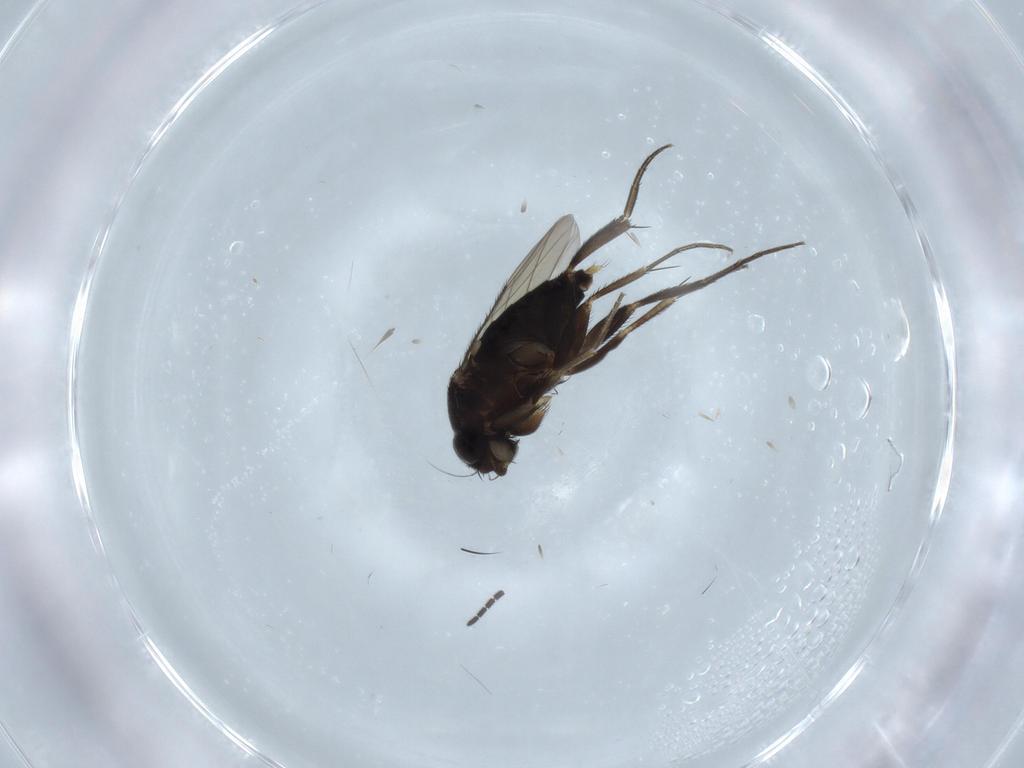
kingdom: Animalia
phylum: Arthropoda
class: Insecta
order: Diptera
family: Phoridae
